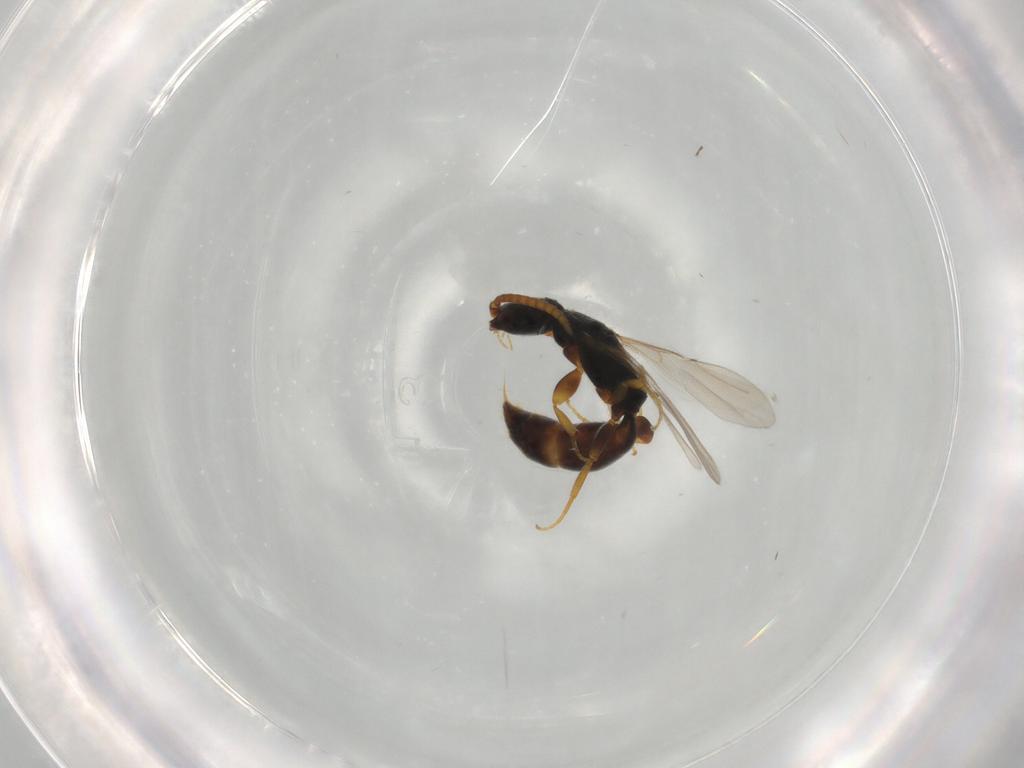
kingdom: Animalia
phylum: Arthropoda
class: Insecta
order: Hymenoptera
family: Bethylidae
